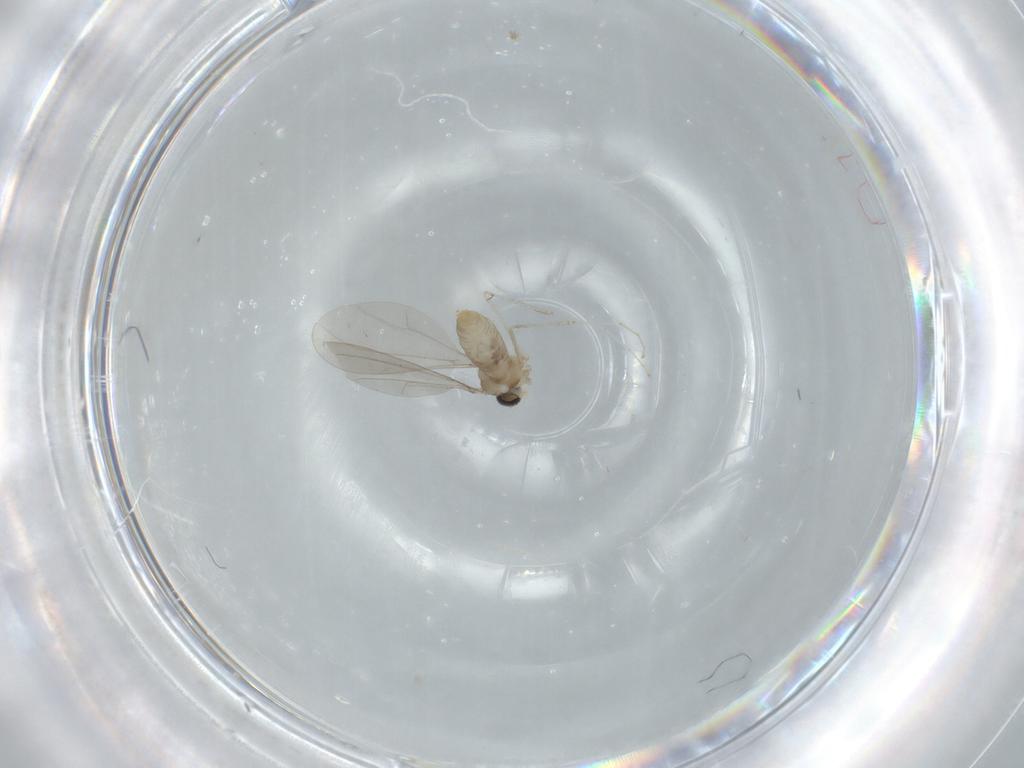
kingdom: Animalia
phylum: Arthropoda
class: Insecta
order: Diptera
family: Cecidomyiidae
